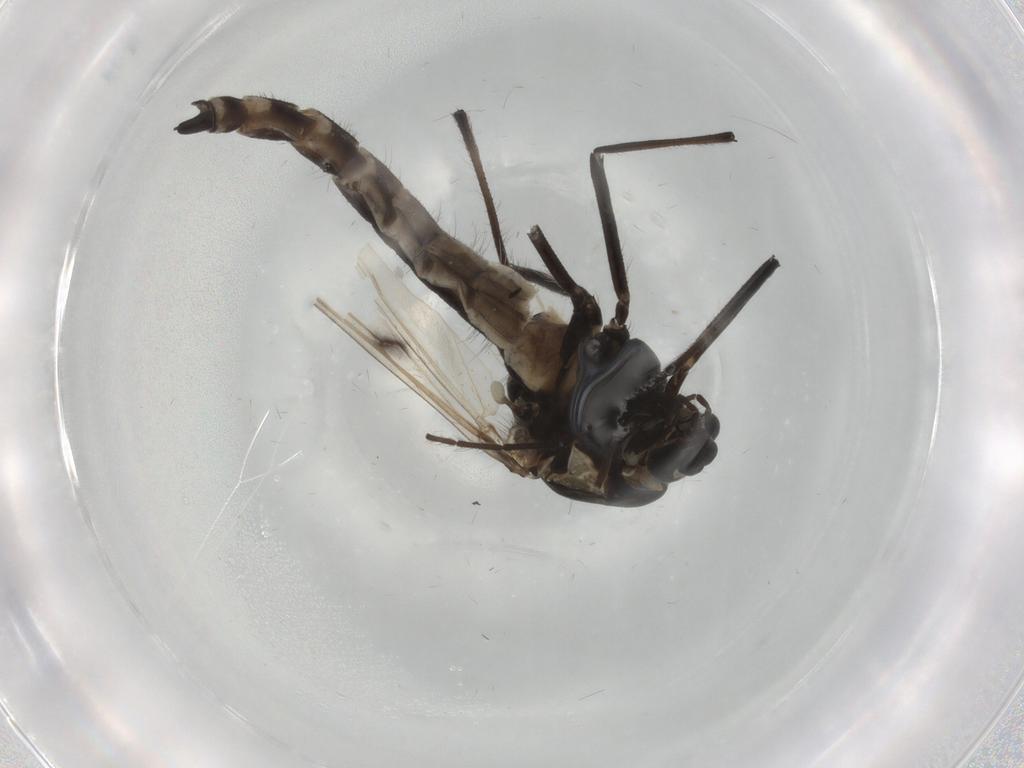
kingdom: Animalia
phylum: Arthropoda
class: Insecta
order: Diptera
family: Chironomidae
